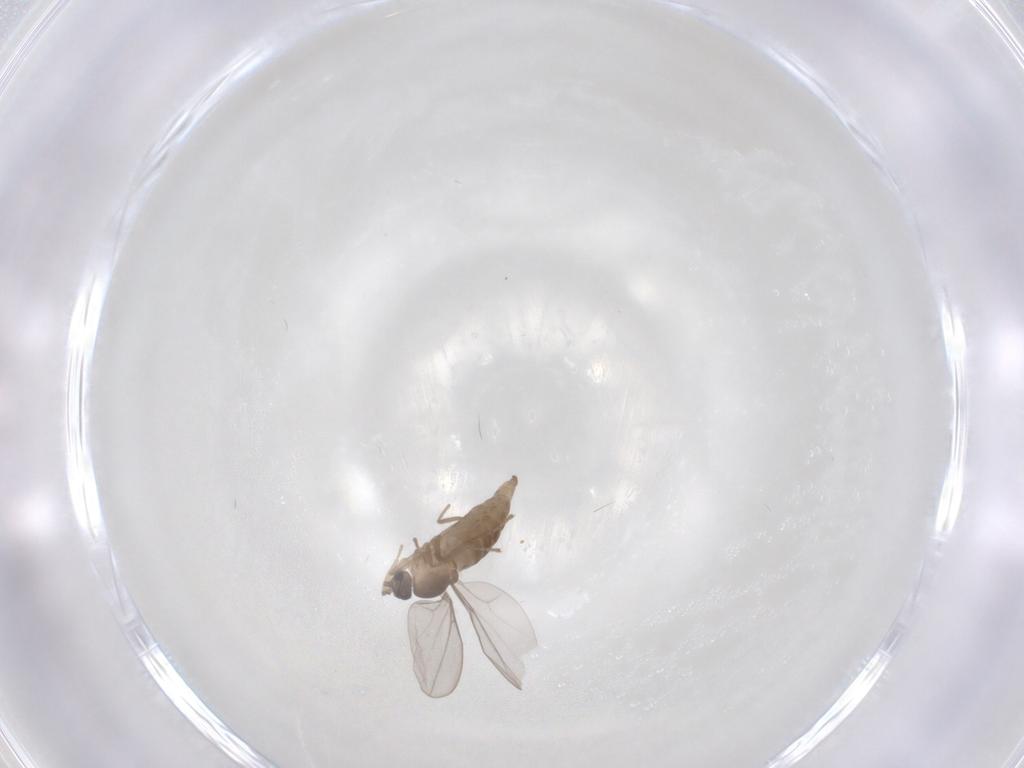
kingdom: Animalia
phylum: Arthropoda
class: Insecta
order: Diptera
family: Cecidomyiidae
